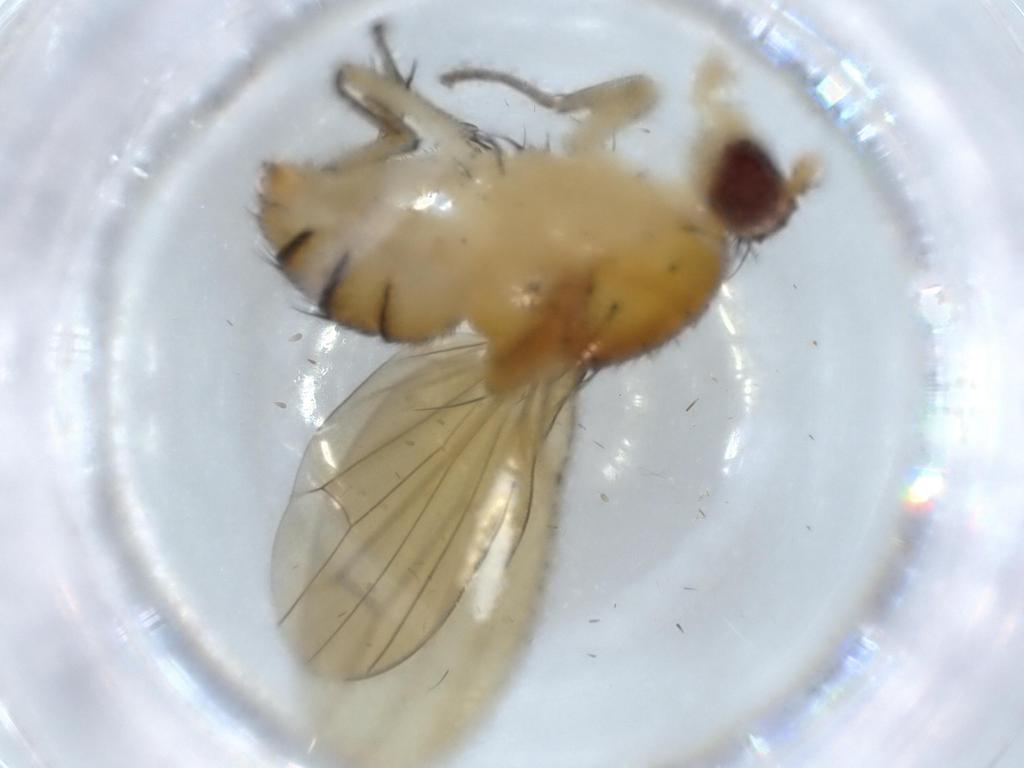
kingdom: Animalia
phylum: Arthropoda
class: Insecta
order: Diptera
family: Lauxaniidae
